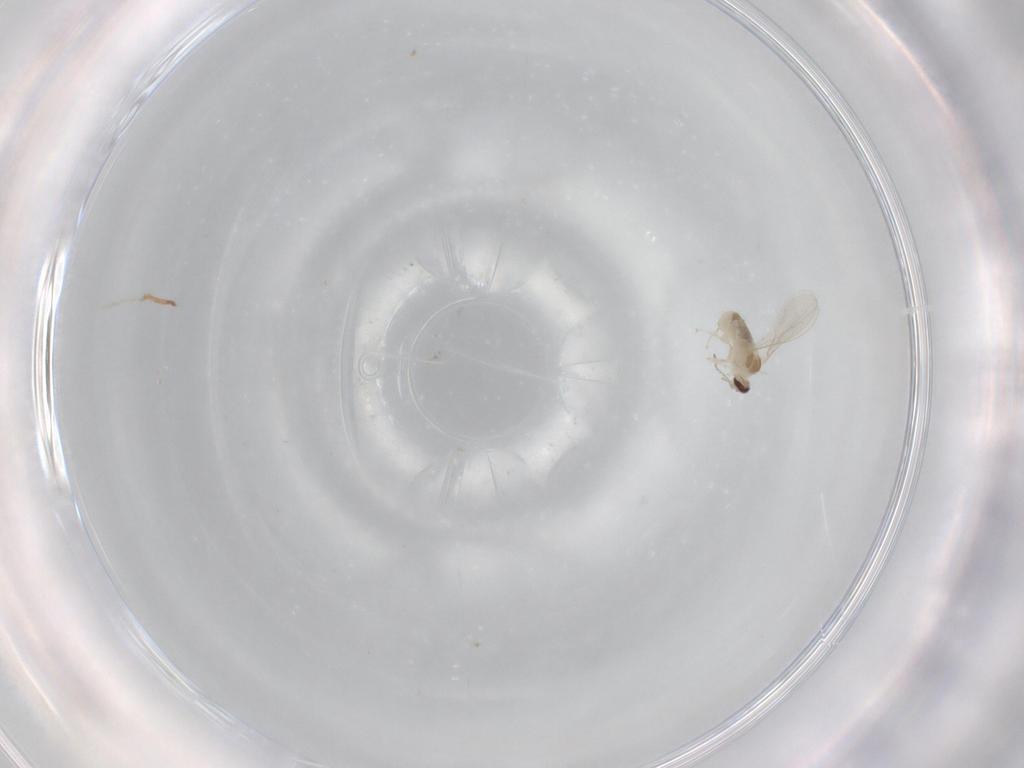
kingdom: Animalia
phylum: Arthropoda
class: Insecta
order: Diptera
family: Cecidomyiidae
